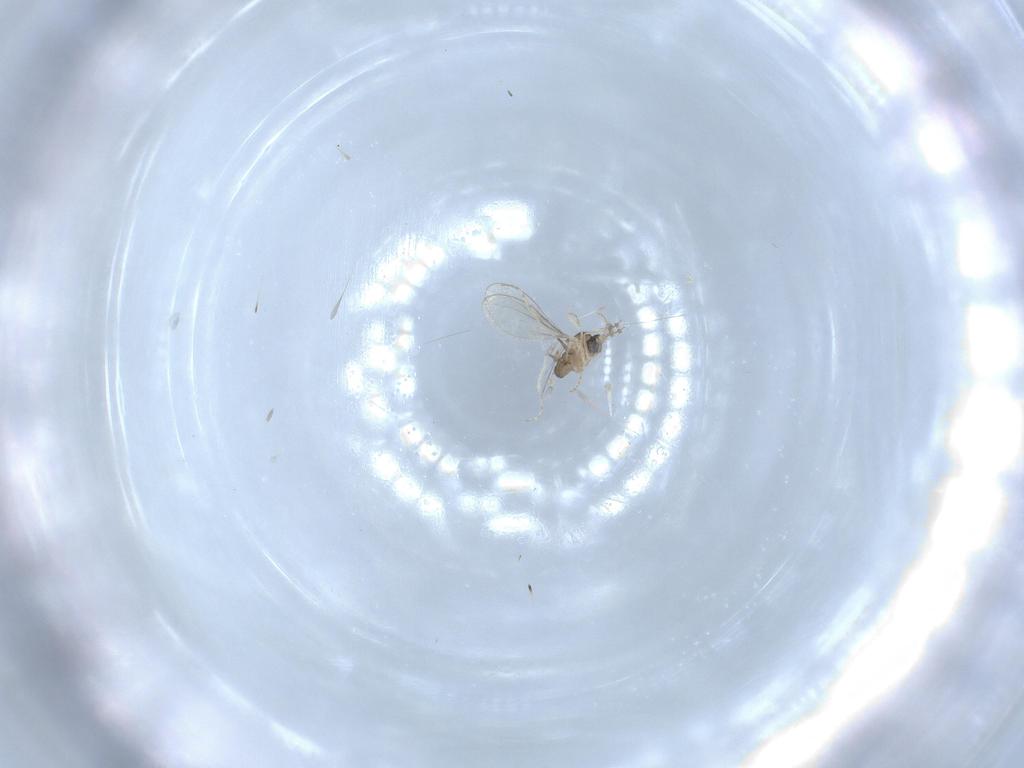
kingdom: Animalia
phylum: Arthropoda
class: Insecta
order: Diptera
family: Cecidomyiidae
